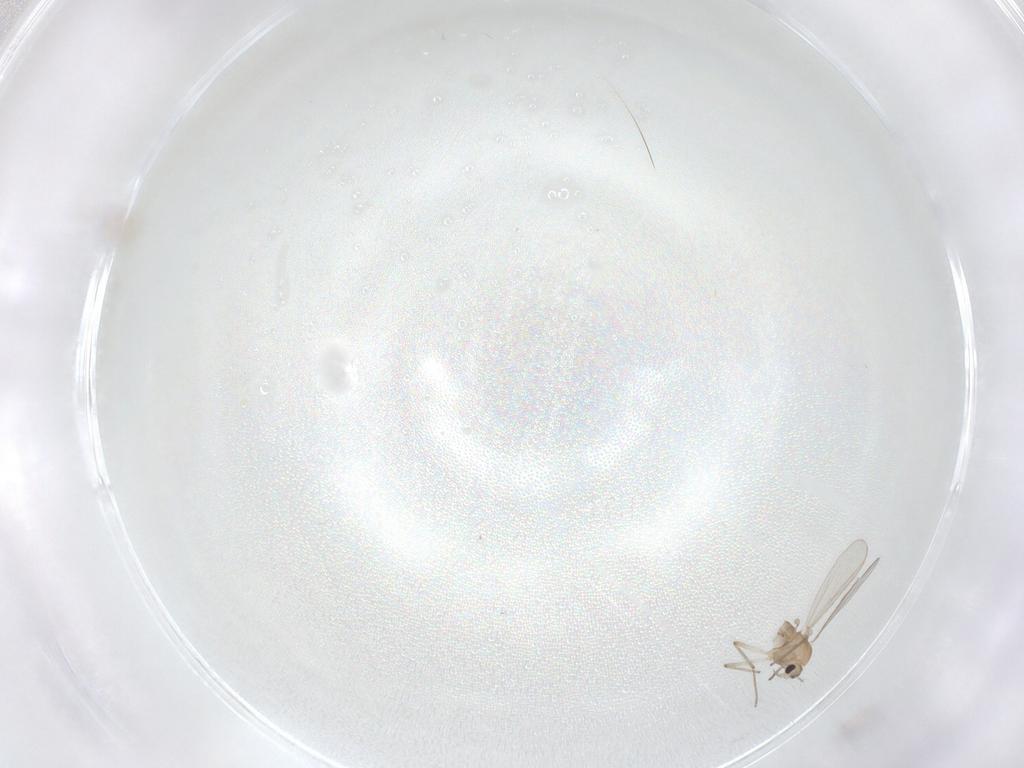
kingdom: Animalia
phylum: Arthropoda
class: Insecta
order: Diptera
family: Chironomidae
